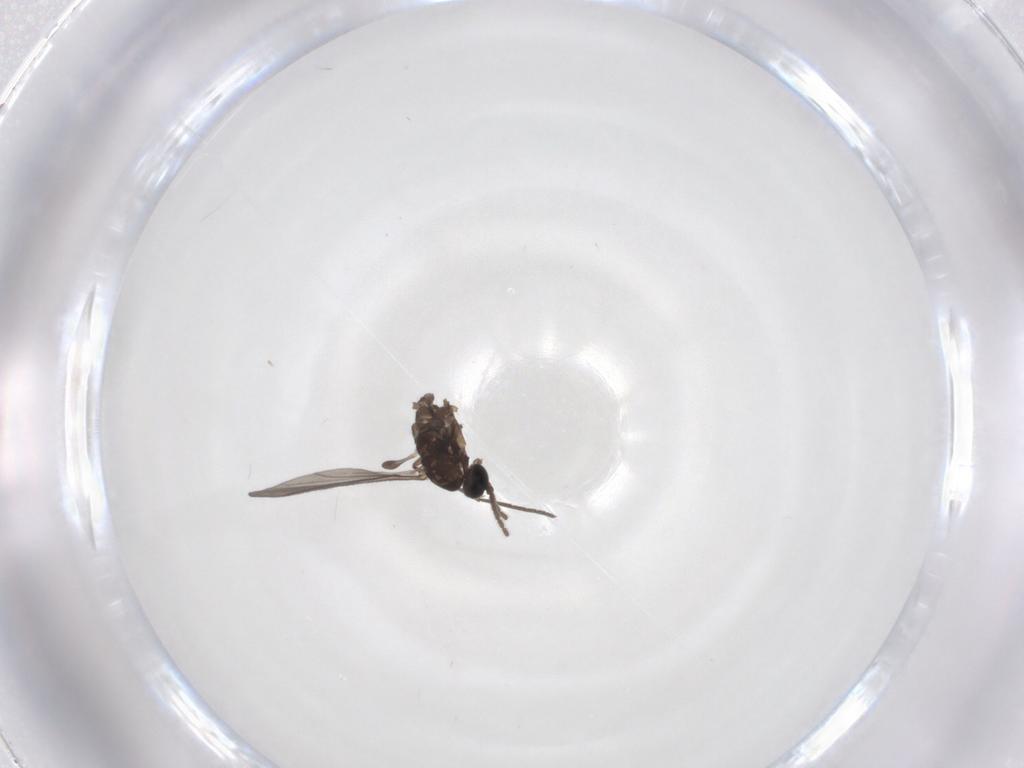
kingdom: Animalia
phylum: Arthropoda
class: Insecta
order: Diptera
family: Sciaridae
